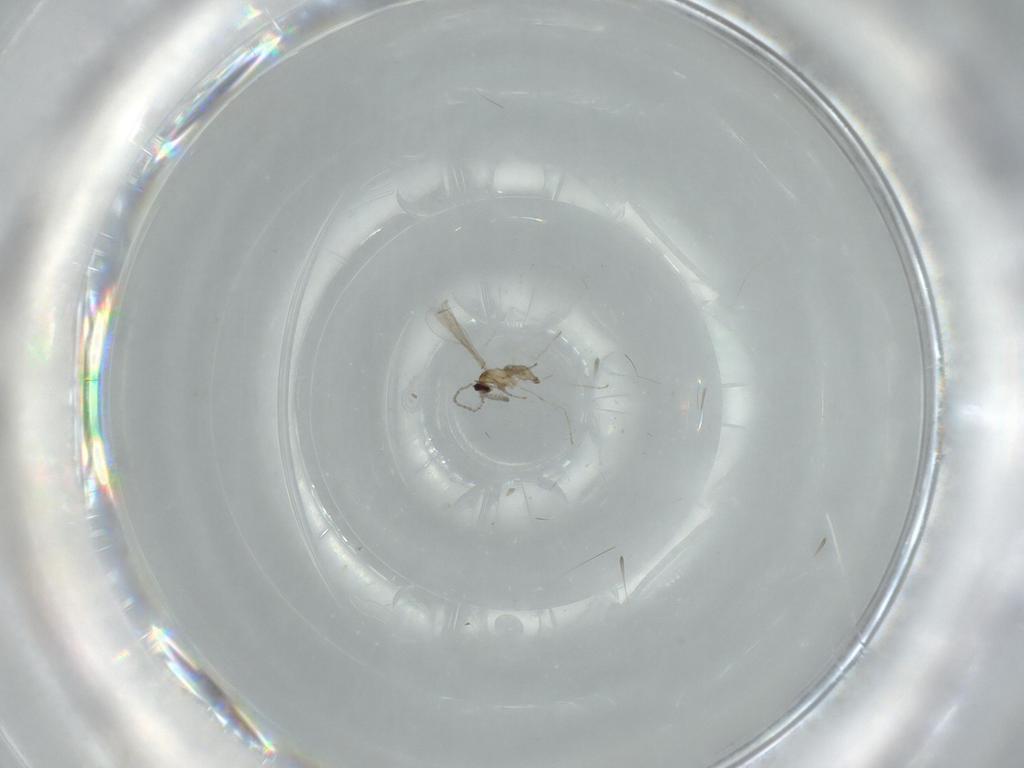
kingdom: Animalia
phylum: Arthropoda
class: Insecta
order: Diptera
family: Cecidomyiidae
